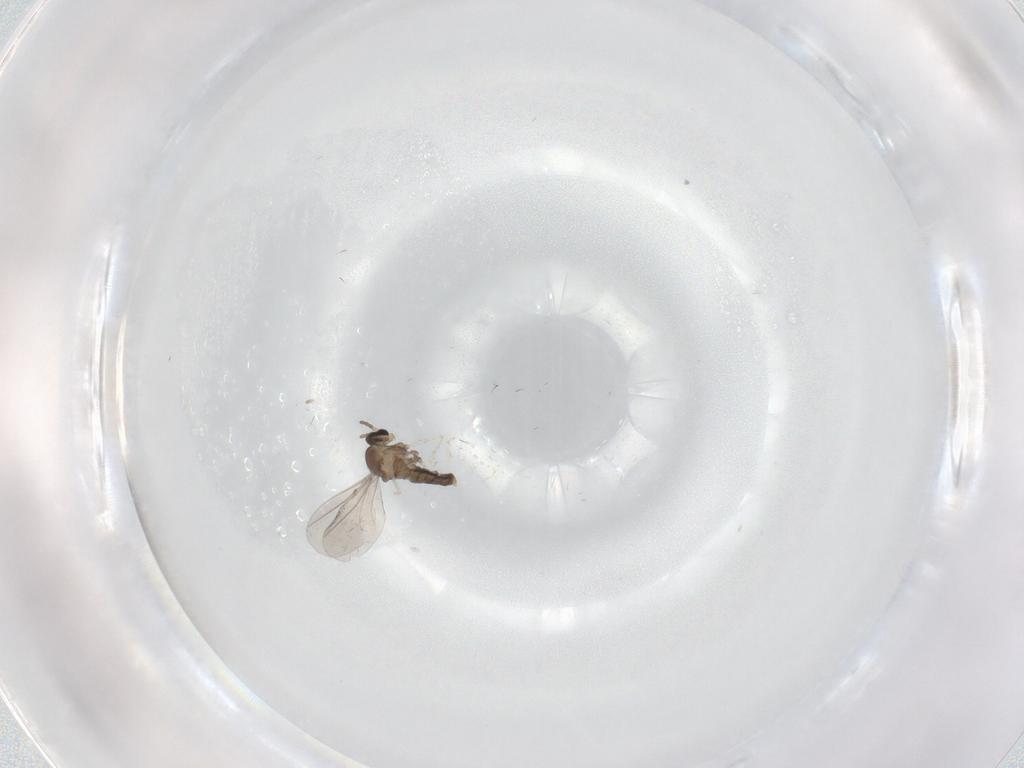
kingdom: Animalia
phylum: Arthropoda
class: Insecta
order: Diptera
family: Cecidomyiidae
